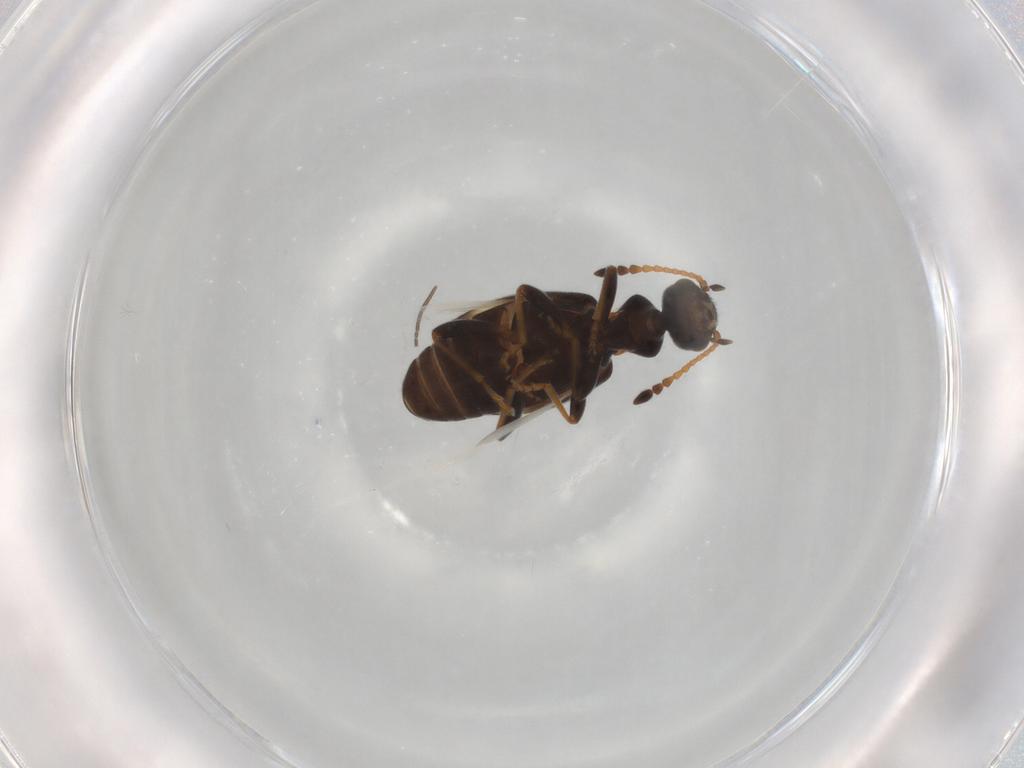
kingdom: Animalia
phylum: Arthropoda
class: Insecta
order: Coleoptera
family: Anthicidae
